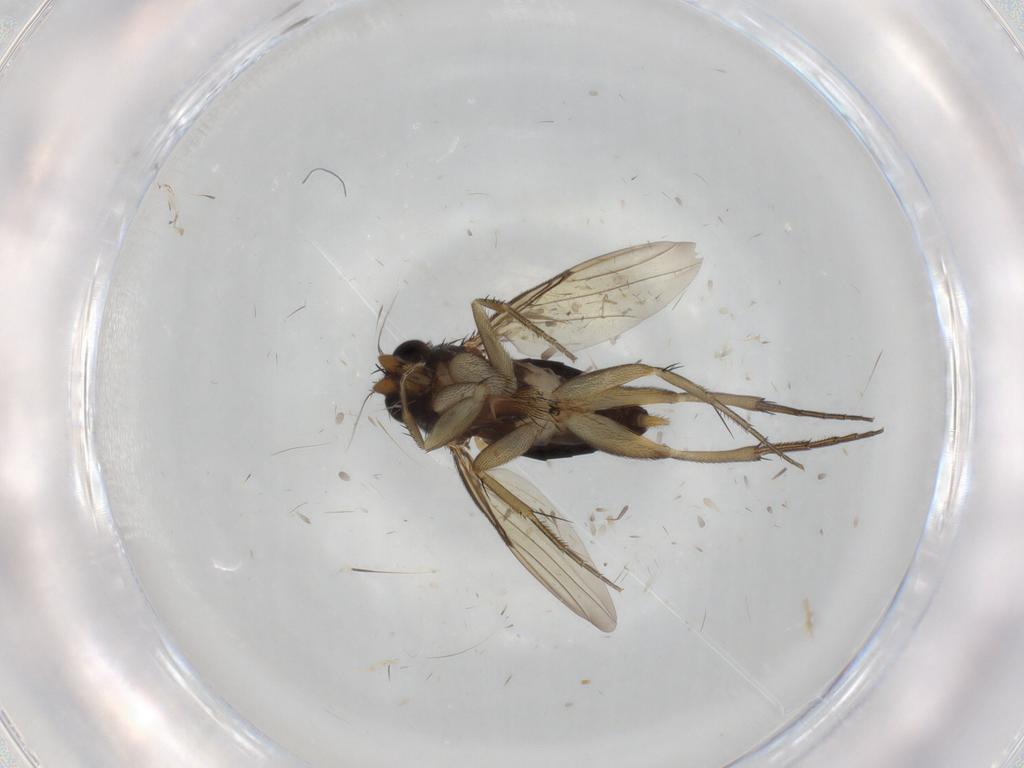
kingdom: Animalia
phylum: Arthropoda
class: Insecta
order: Diptera
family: Phoridae
